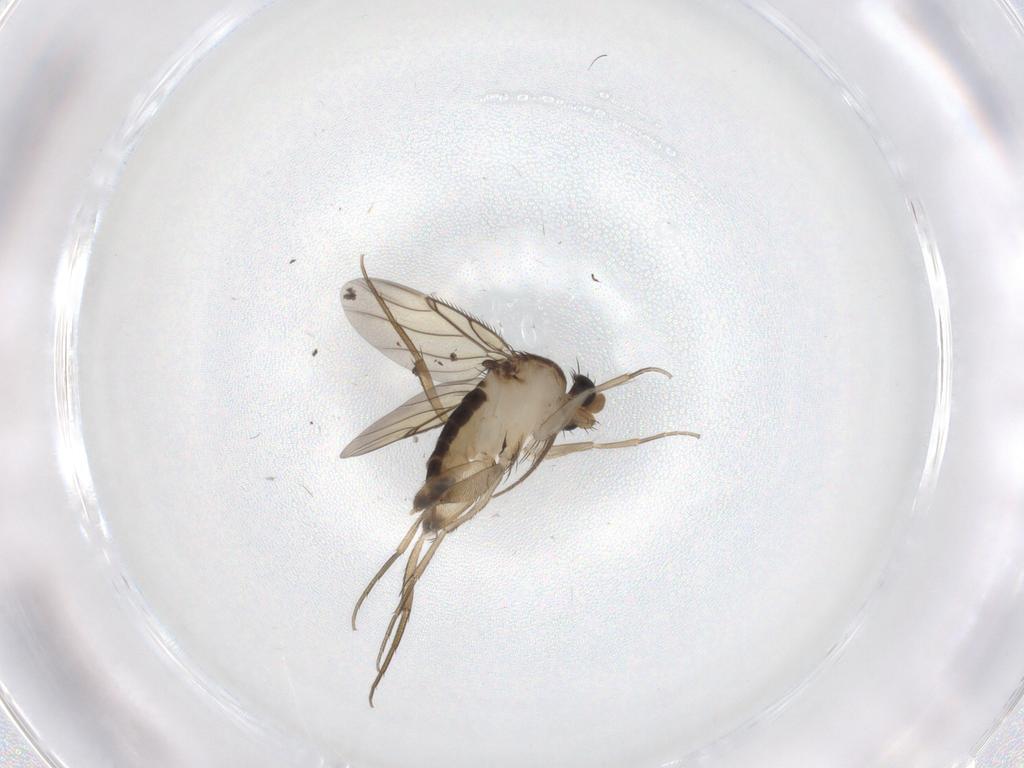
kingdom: Animalia
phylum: Arthropoda
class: Insecta
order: Diptera
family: Phoridae
